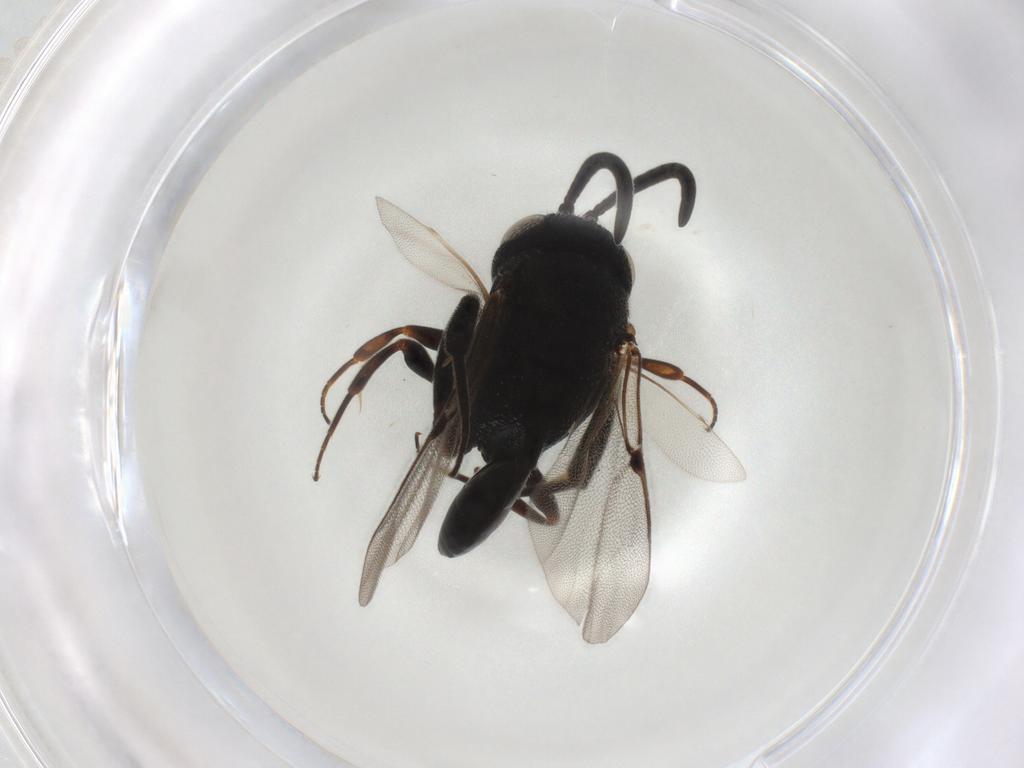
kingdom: Animalia
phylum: Arthropoda
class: Insecta
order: Hymenoptera
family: Evaniidae
